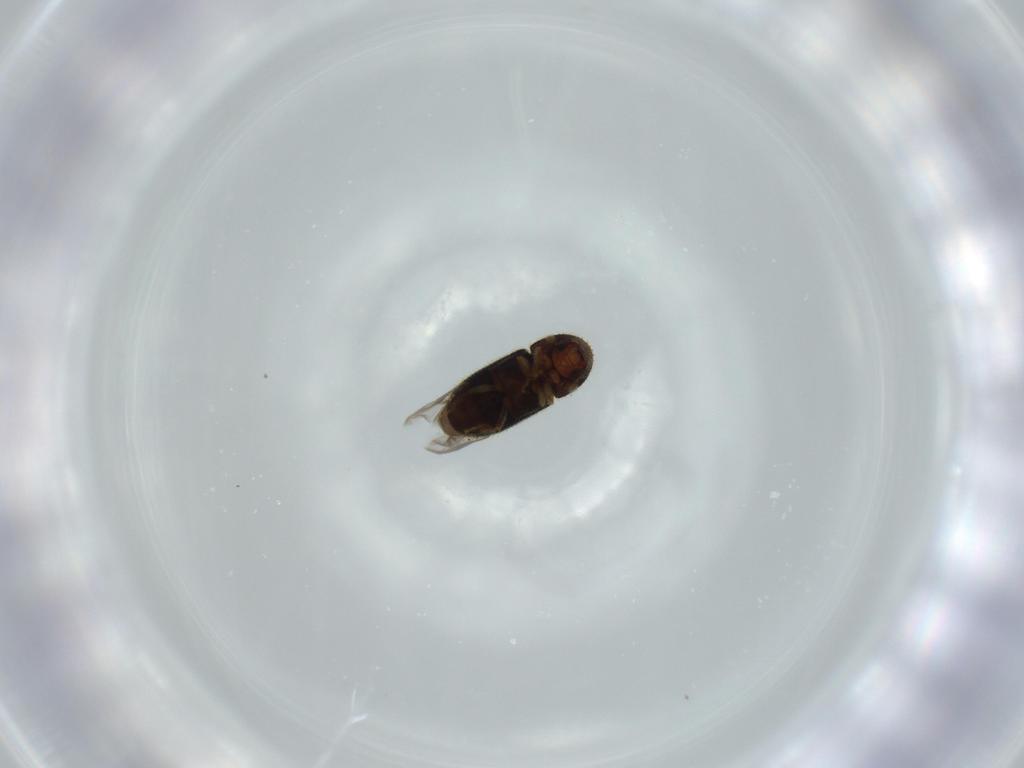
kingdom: Animalia
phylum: Arthropoda
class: Insecta
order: Coleoptera
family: Curculionidae
